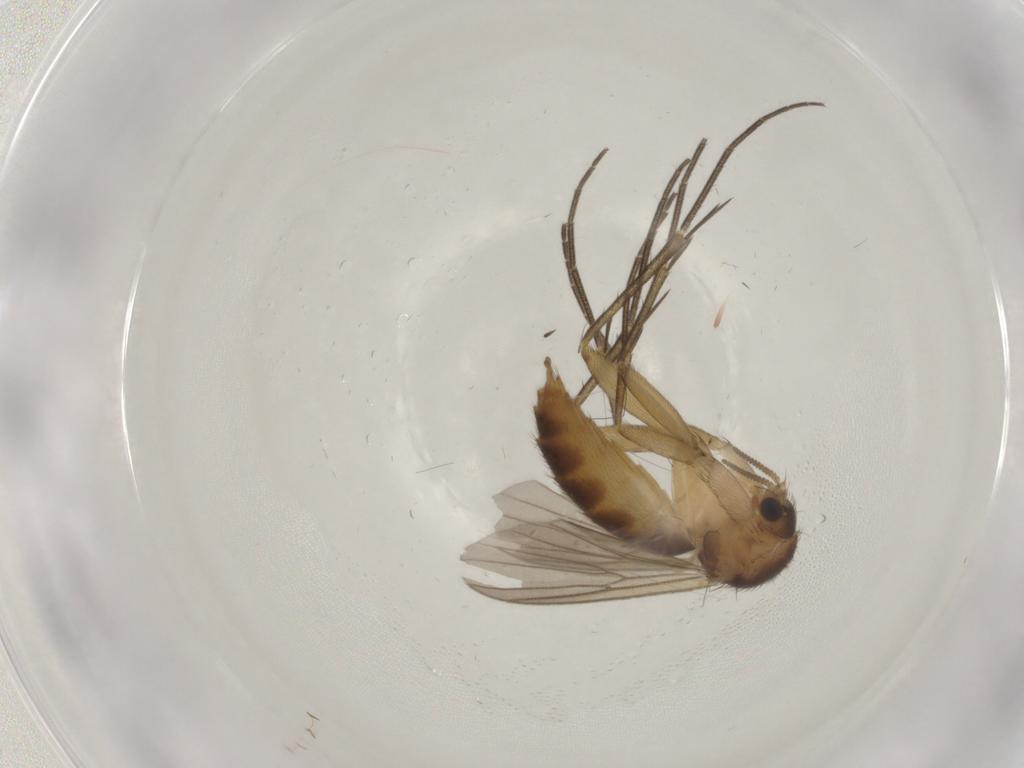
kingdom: Animalia
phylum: Arthropoda
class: Insecta
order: Diptera
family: Mycetophilidae
